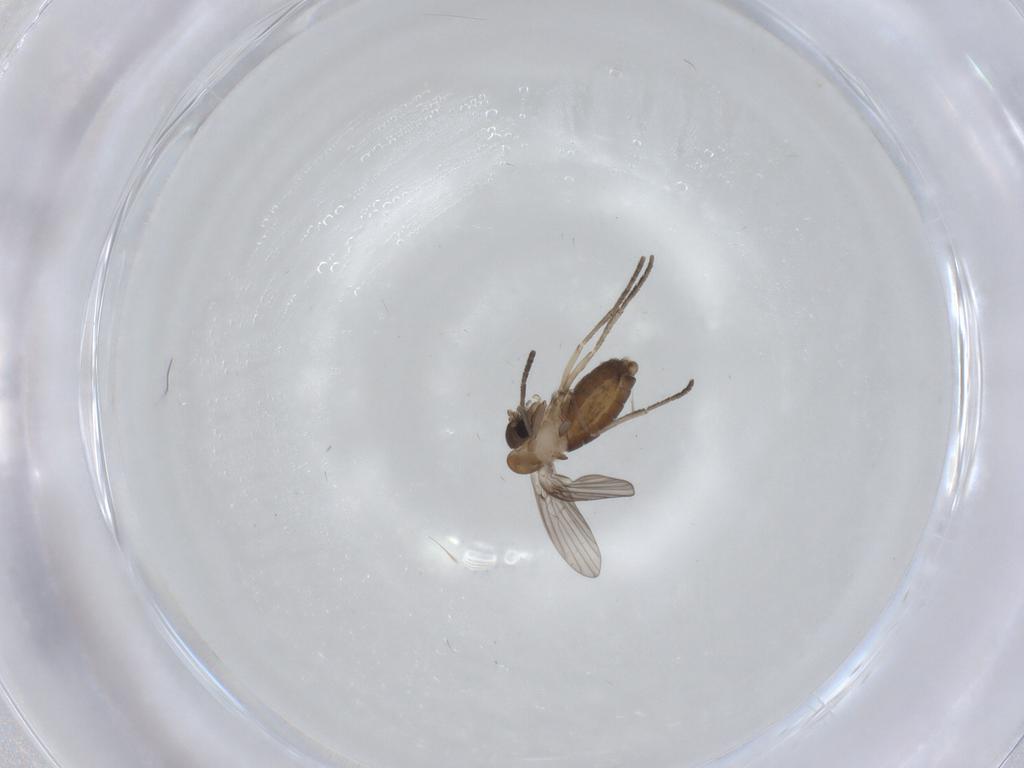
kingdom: Animalia
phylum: Arthropoda
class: Insecta
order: Diptera
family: Psychodidae
